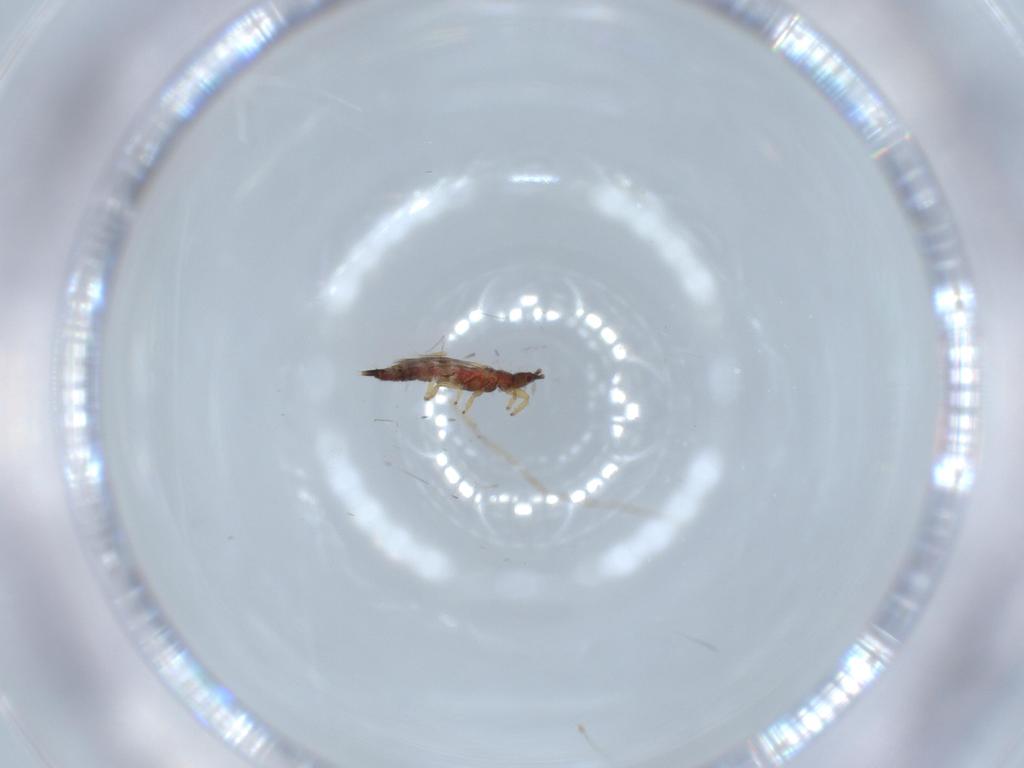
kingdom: Animalia
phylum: Arthropoda
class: Insecta
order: Thysanoptera
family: Phlaeothripidae
